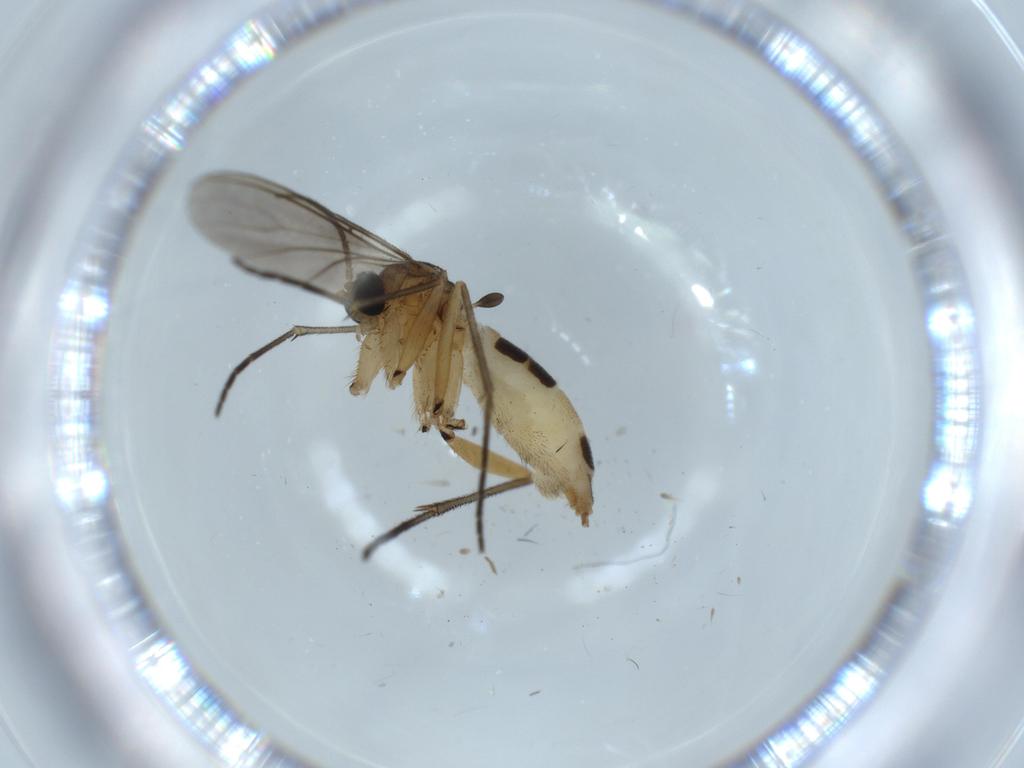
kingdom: Animalia
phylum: Arthropoda
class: Insecta
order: Diptera
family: Sciaridae
